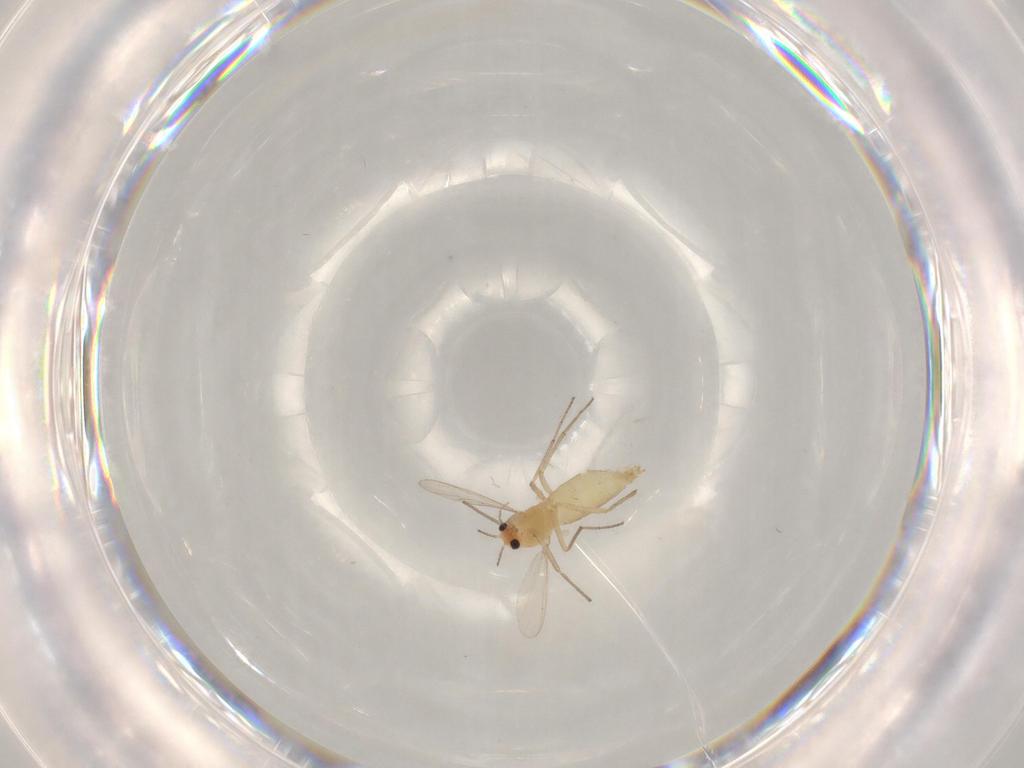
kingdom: Animalia
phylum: Arthropoda
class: Insecta
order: Diptera
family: Chironomidae
